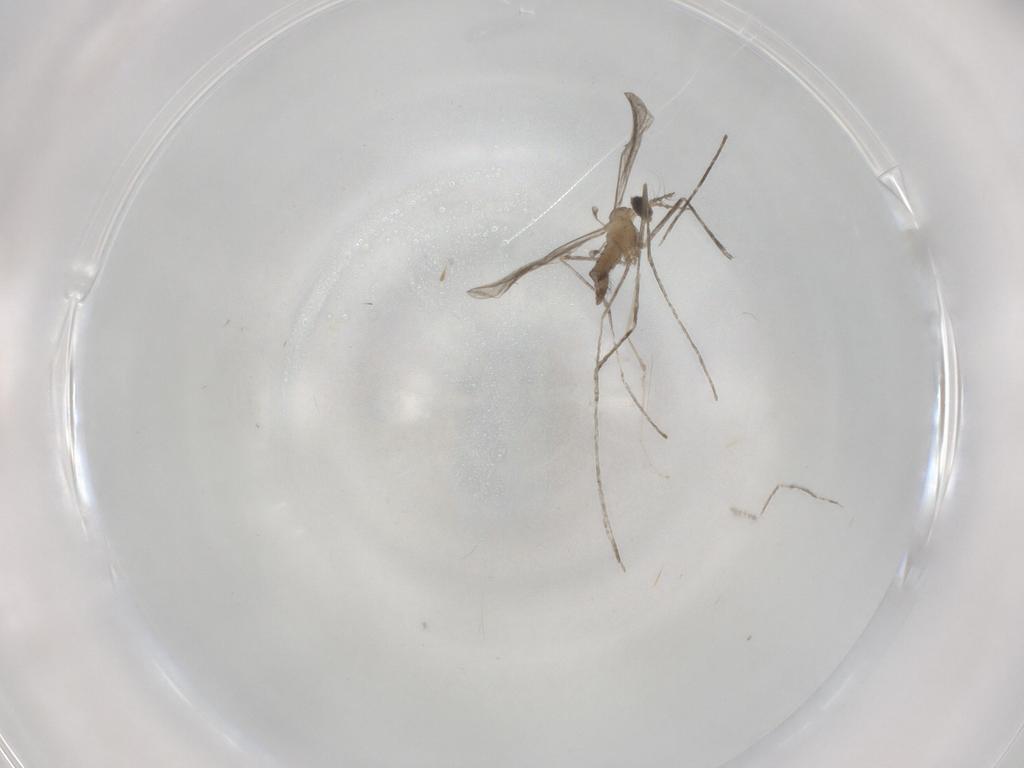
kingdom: Animalia
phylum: Arthropoda
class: Insecta
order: Diptera
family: Cecidomyiidae
